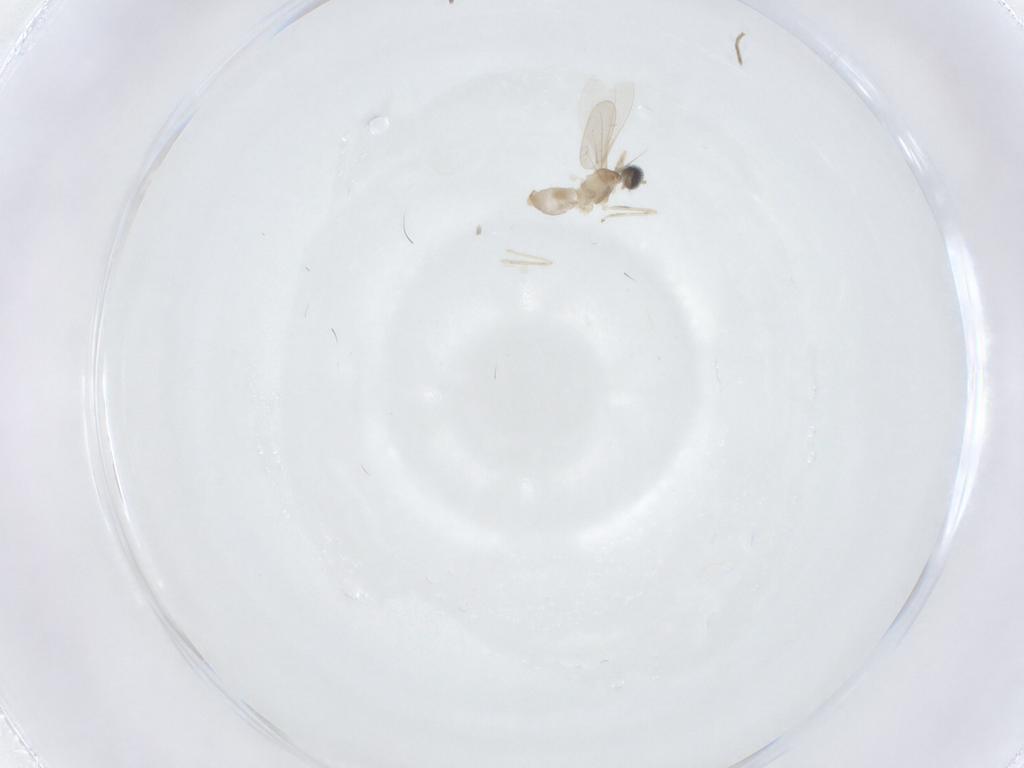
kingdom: Animalia
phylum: Arthropoda
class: Insecta
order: Diptera
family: Cecidomyiidae
